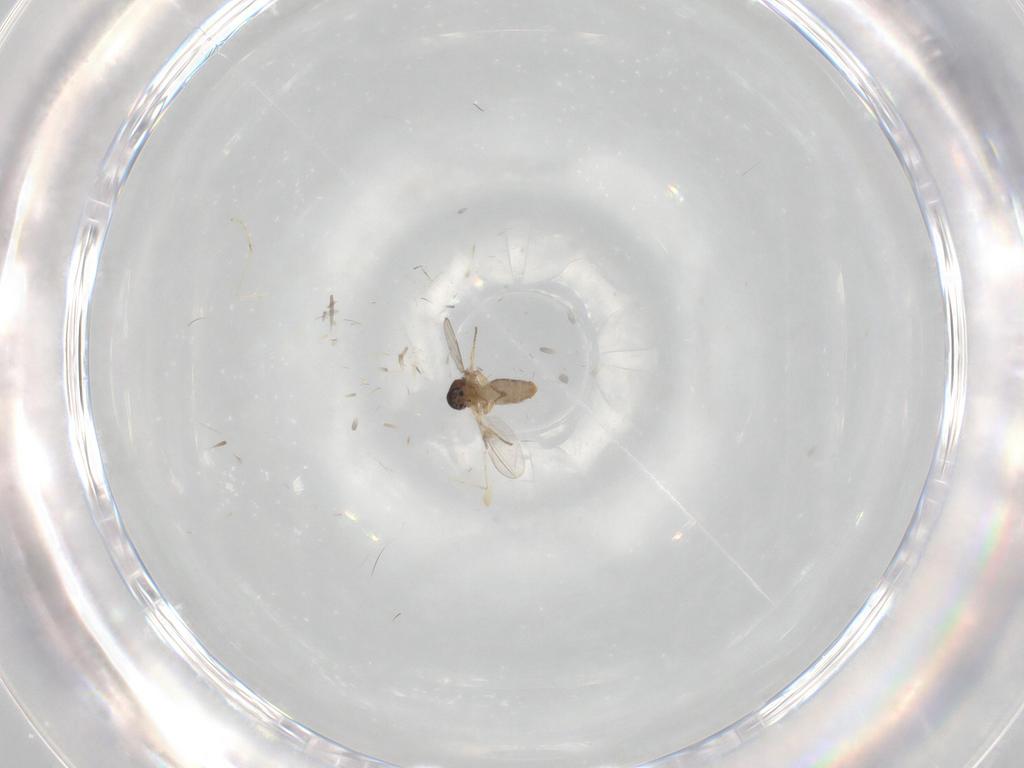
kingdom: Animalia
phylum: Arthropoda
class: Insecta
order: Diptera
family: Ceratopogonidae
